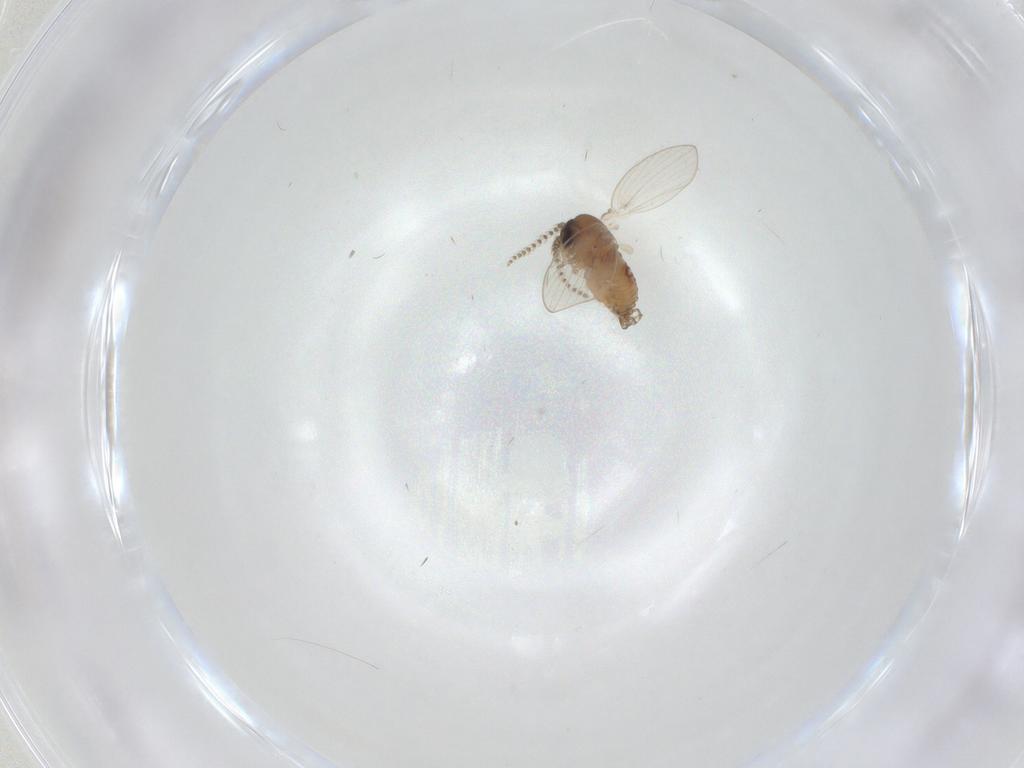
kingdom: Animalia
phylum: Arthropoda
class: Insecta
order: Diptera
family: Psychodidae
